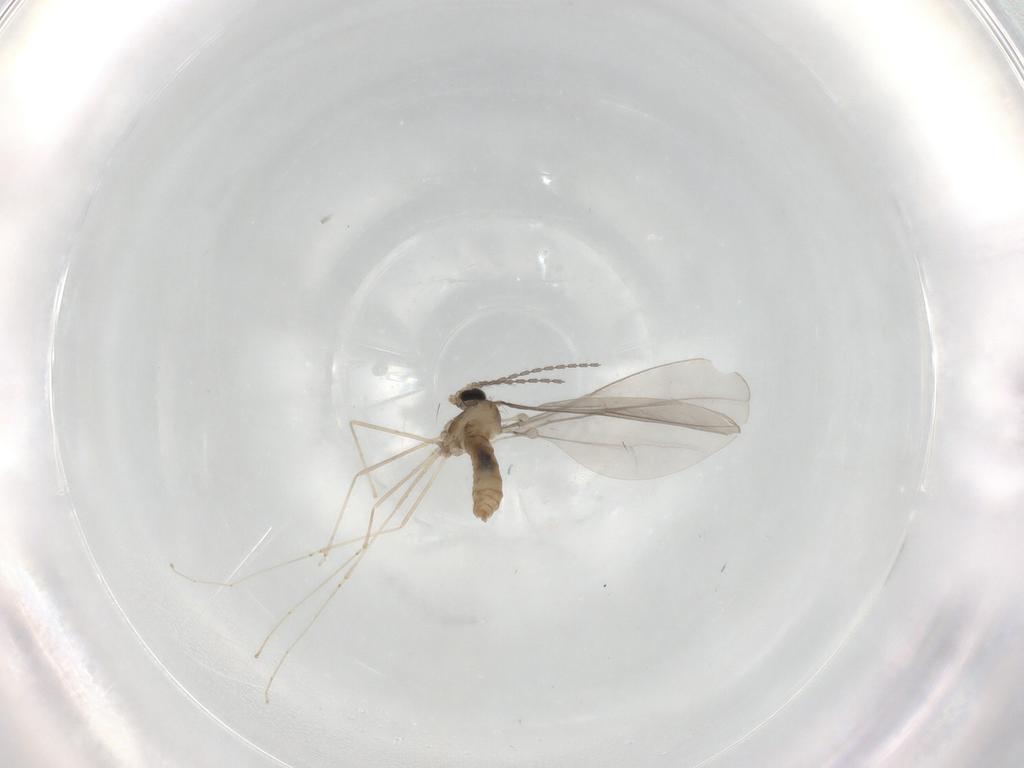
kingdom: Animalia
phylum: Arthropoda
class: Insecta
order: Diptera
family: Cecidomyiidae
